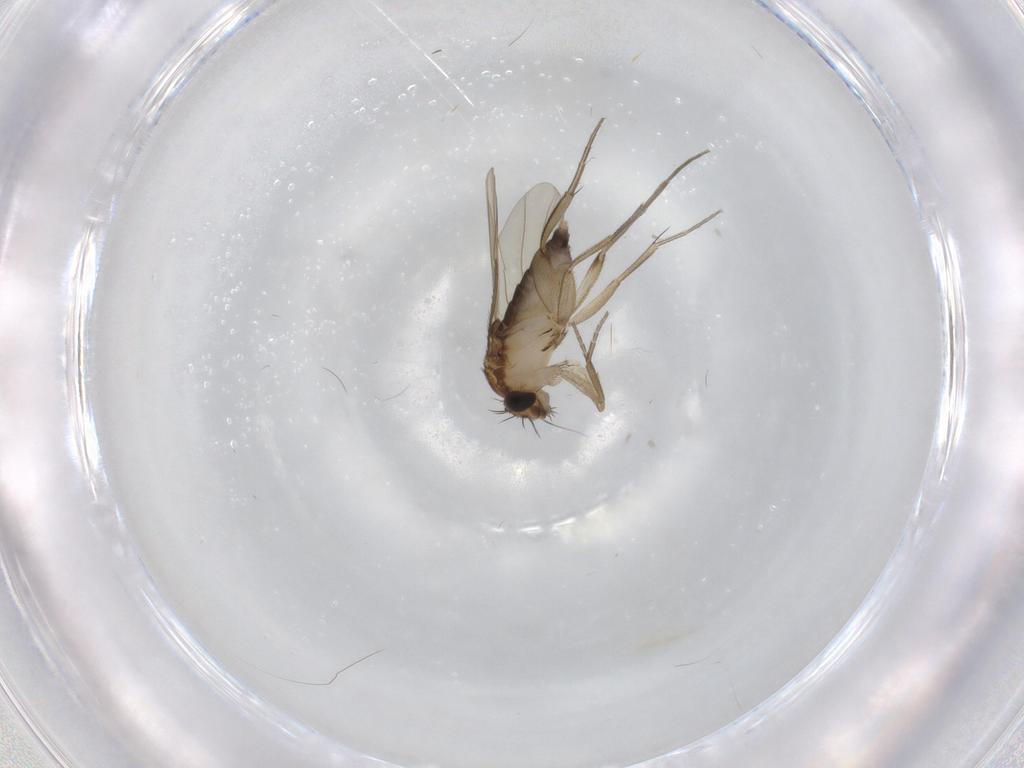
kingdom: Animalia
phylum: Arthropoda
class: Insecta
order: Diptera
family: Phoridae
